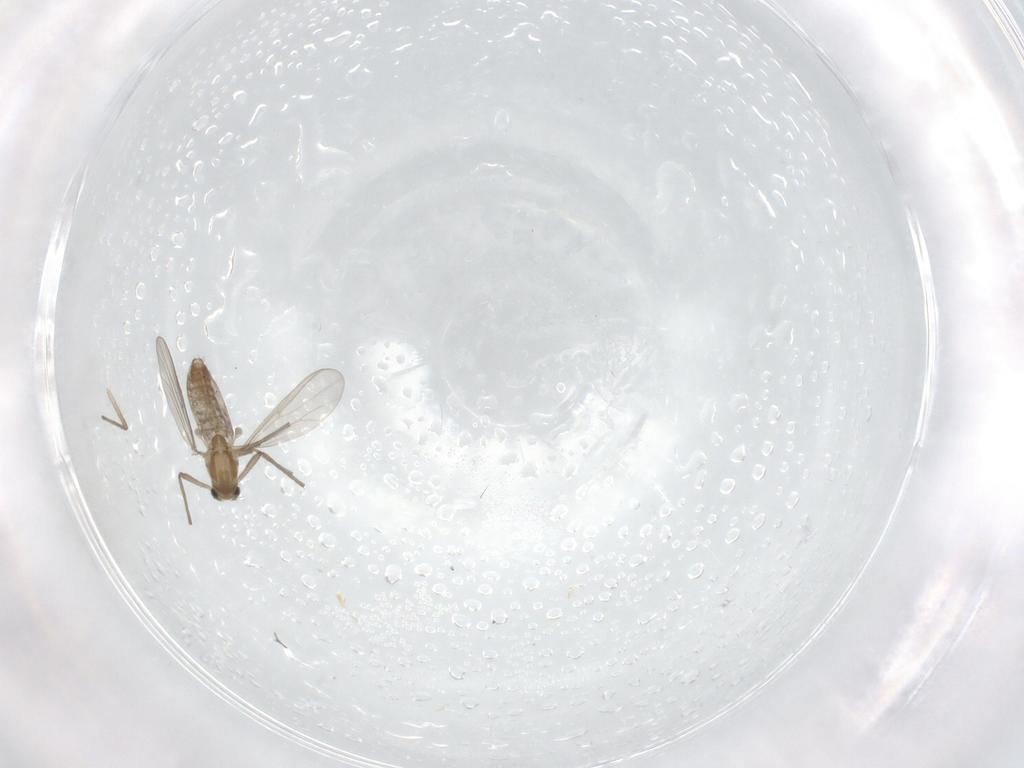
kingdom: Animalia
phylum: Arthropoda
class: Insecta
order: Diptera
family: Chironomidae
